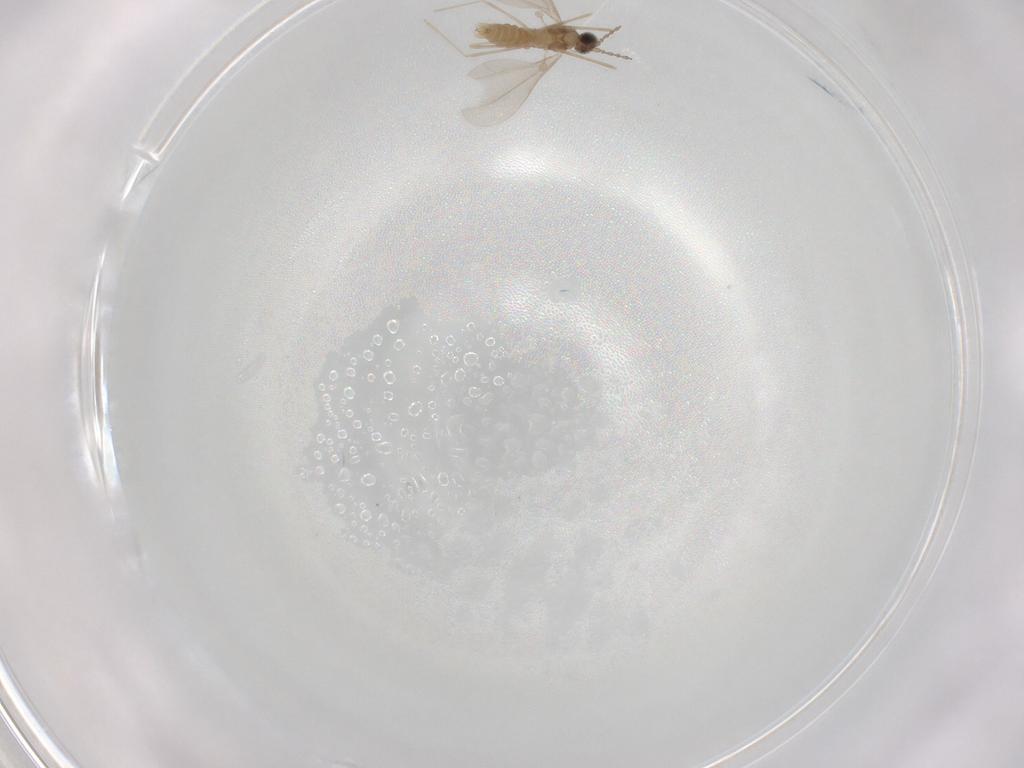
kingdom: Animalia
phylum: Arthropoda
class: Insecta
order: Diptera
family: Cecidomyiidae
